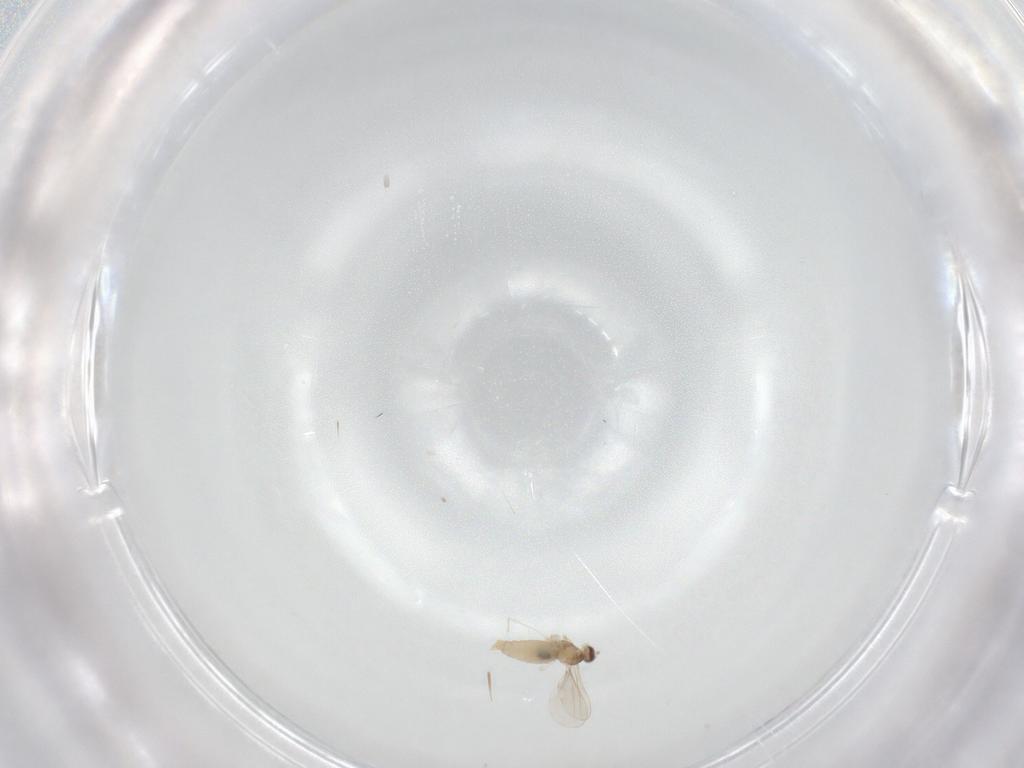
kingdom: Animalia
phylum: Arthropoda
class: Insecta
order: Diptera
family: Cecidomyiidae
